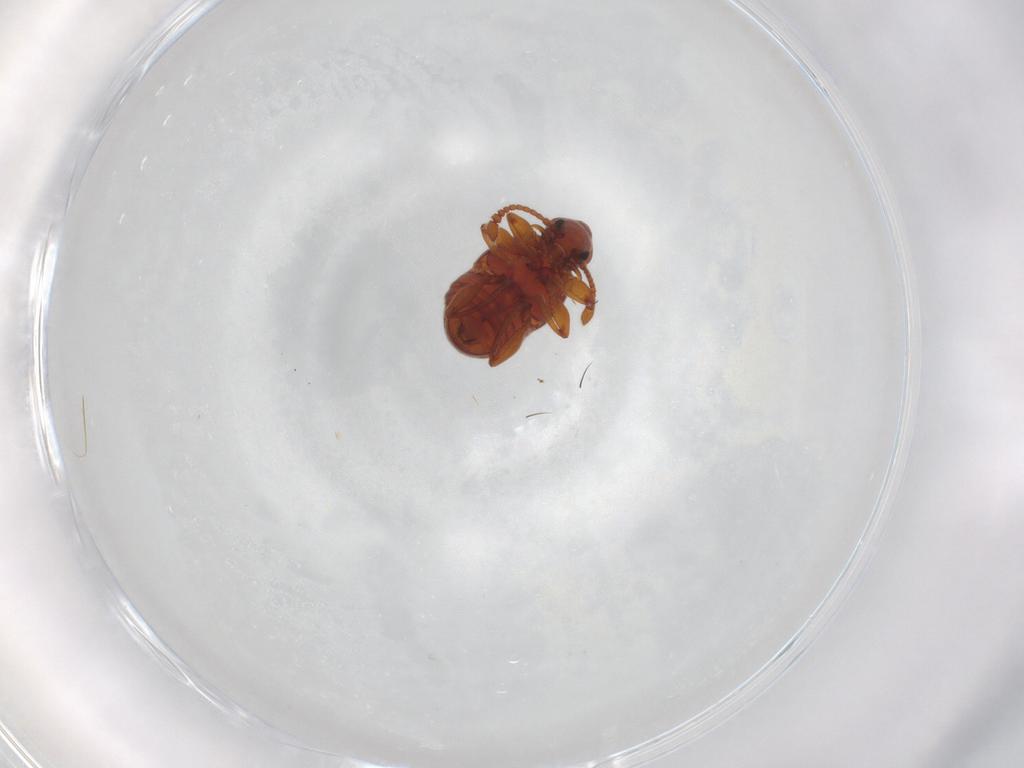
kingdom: Animalia
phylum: Arthropoda
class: Insecta
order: Coleoptera
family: Staphylinidae
